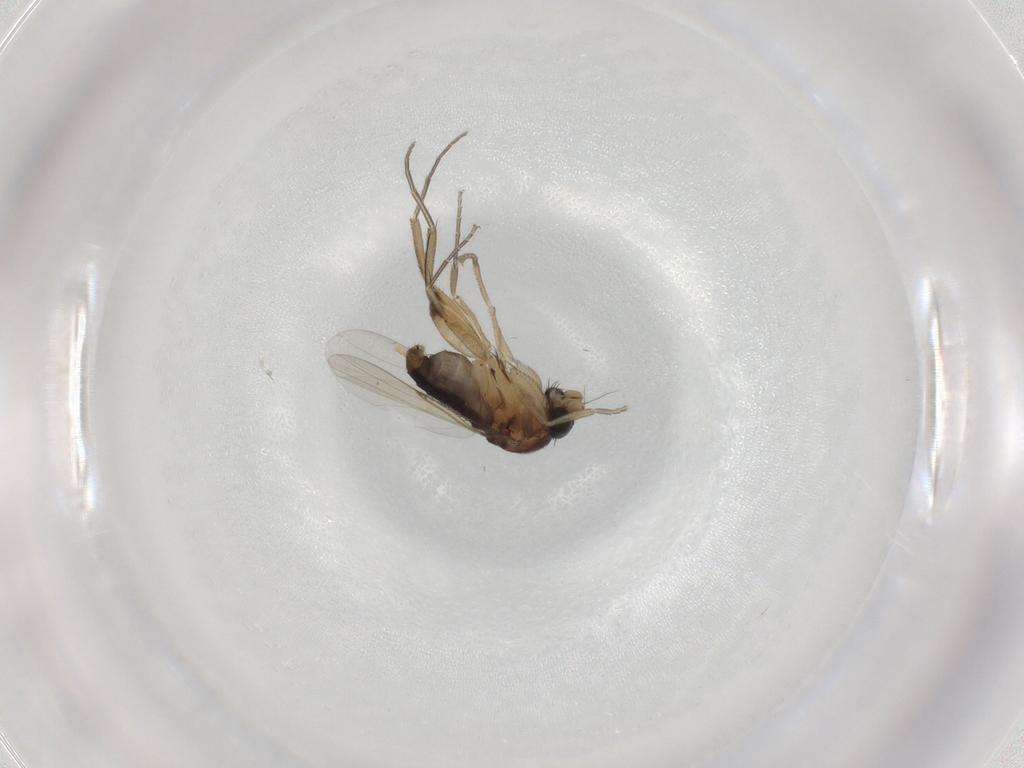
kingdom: Animalia
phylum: Arthropoda
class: Insecta
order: Diptera
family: Phoridae
